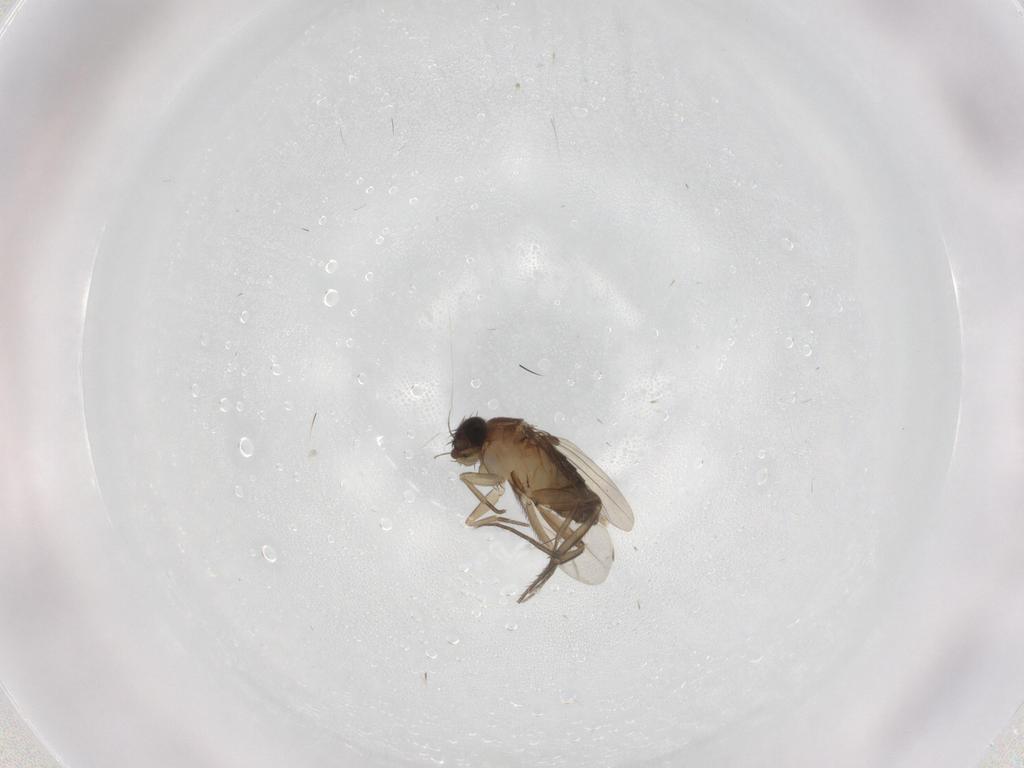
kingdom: Animalia
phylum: Arthropoda
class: Insecta
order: Diptera
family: Phoridae
